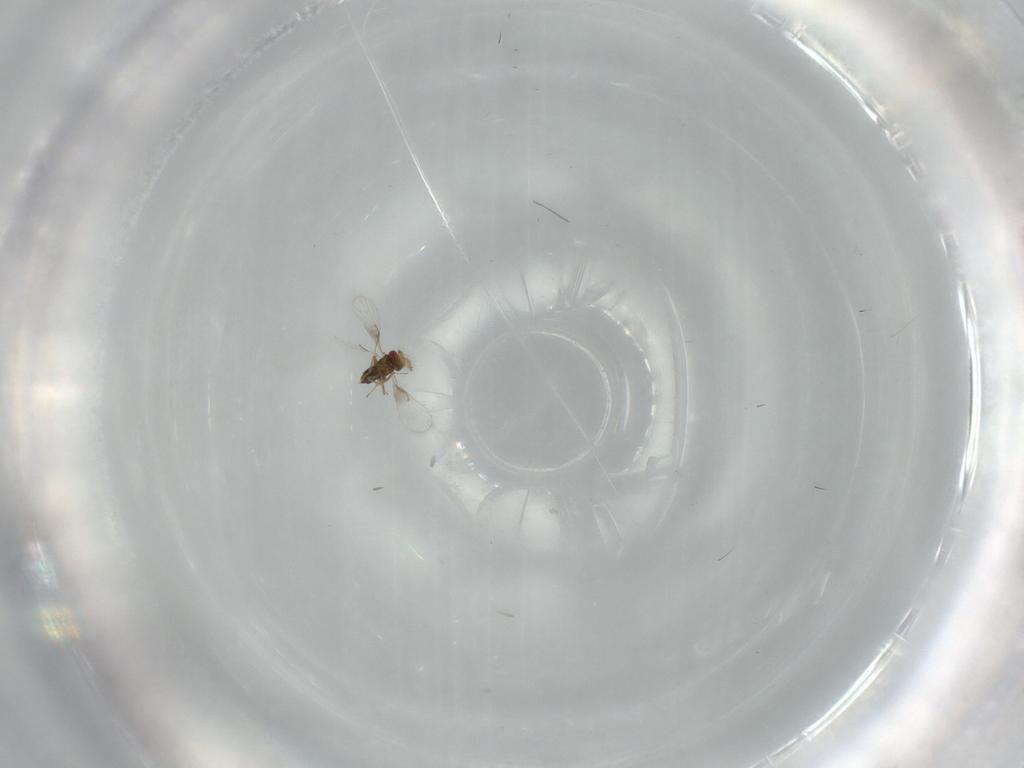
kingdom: Animalia
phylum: Arthropoda
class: Insecta
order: Hymenoptera
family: Trichogrammatidae
